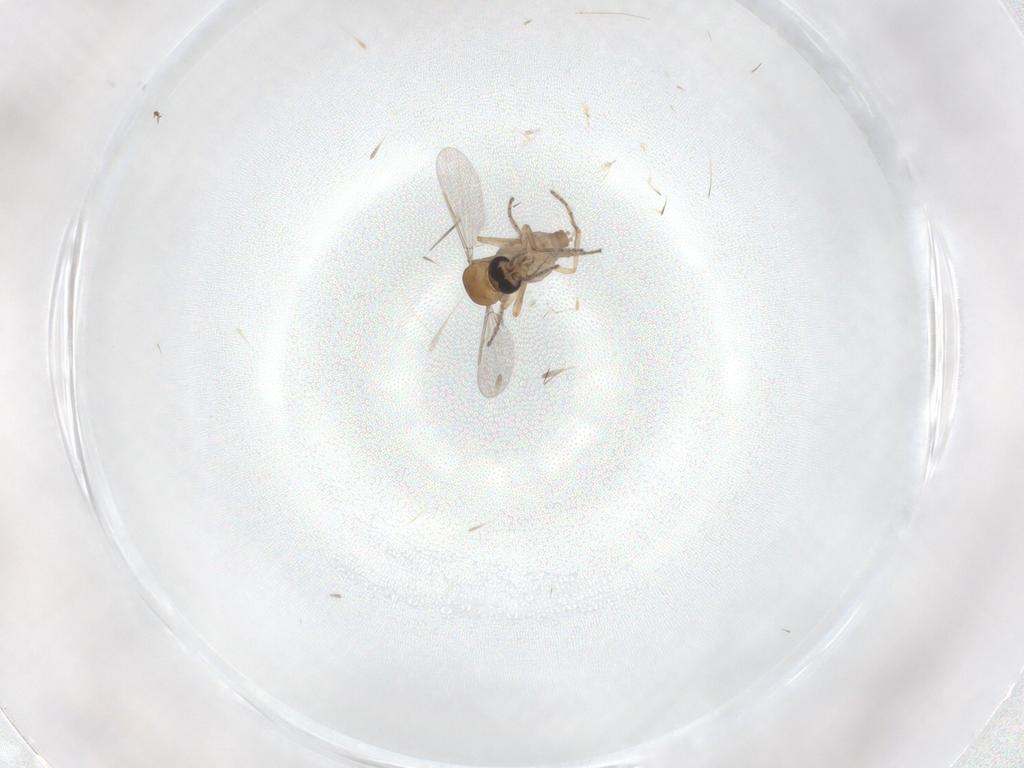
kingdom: Animalia
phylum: Arthropoda
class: Insecta
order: Diptera
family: Ceratopogonidae
